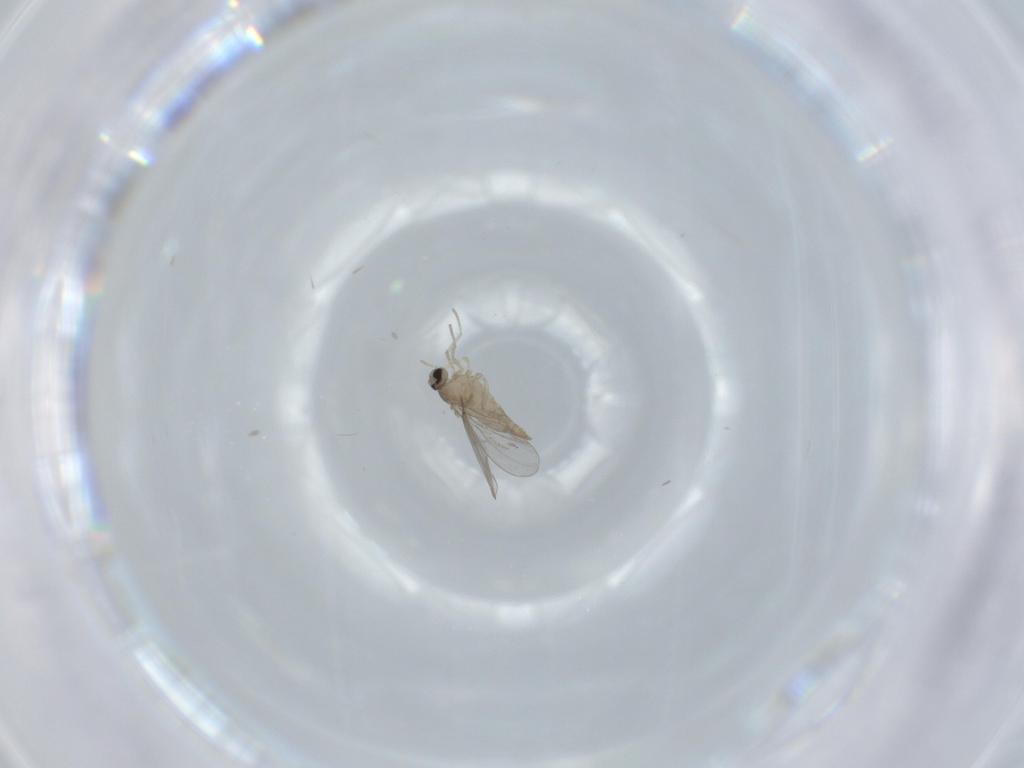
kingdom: Animalia
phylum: Arthropoda
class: Insecta
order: Diptera
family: Cecidomyiidae
